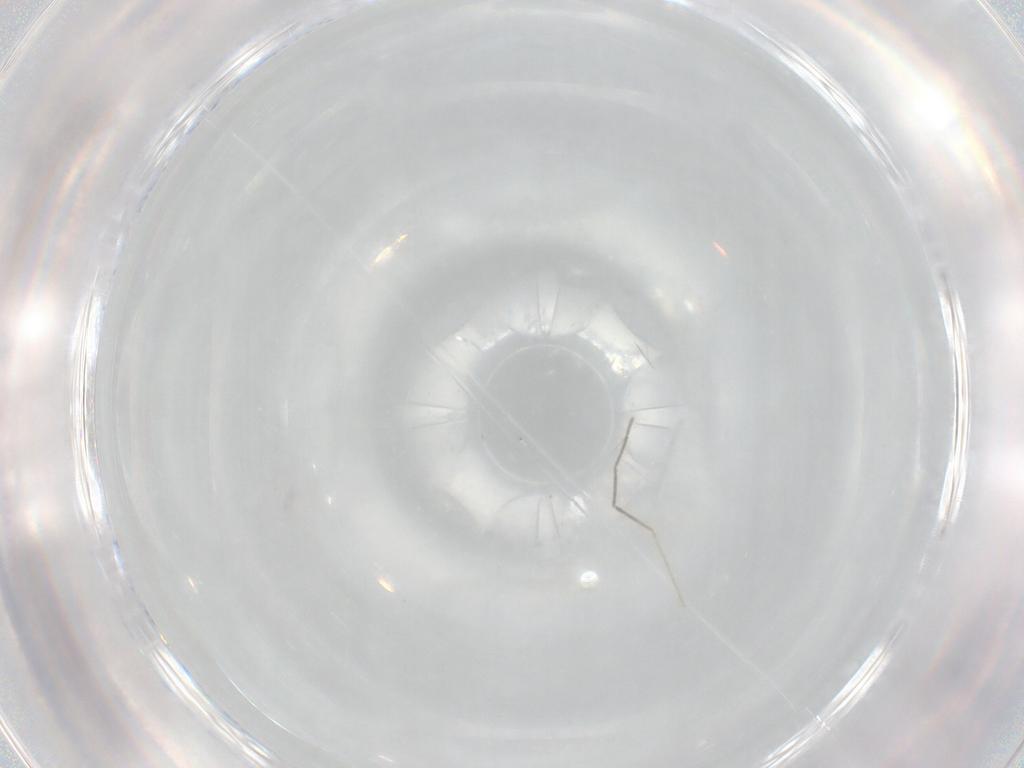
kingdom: Animalia
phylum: Arthropoda
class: Insecta
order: Diptera
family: Chironomidae
